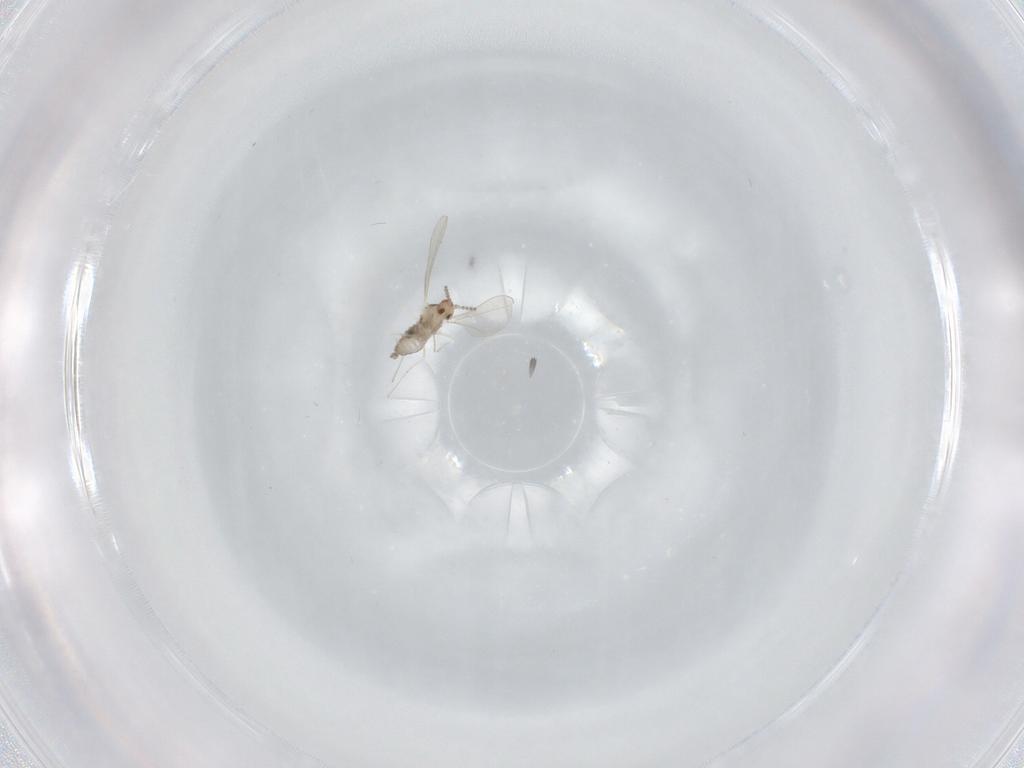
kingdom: Animalia
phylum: Arthropoda
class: Insecta
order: Diptera
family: Cecidomyiidae
